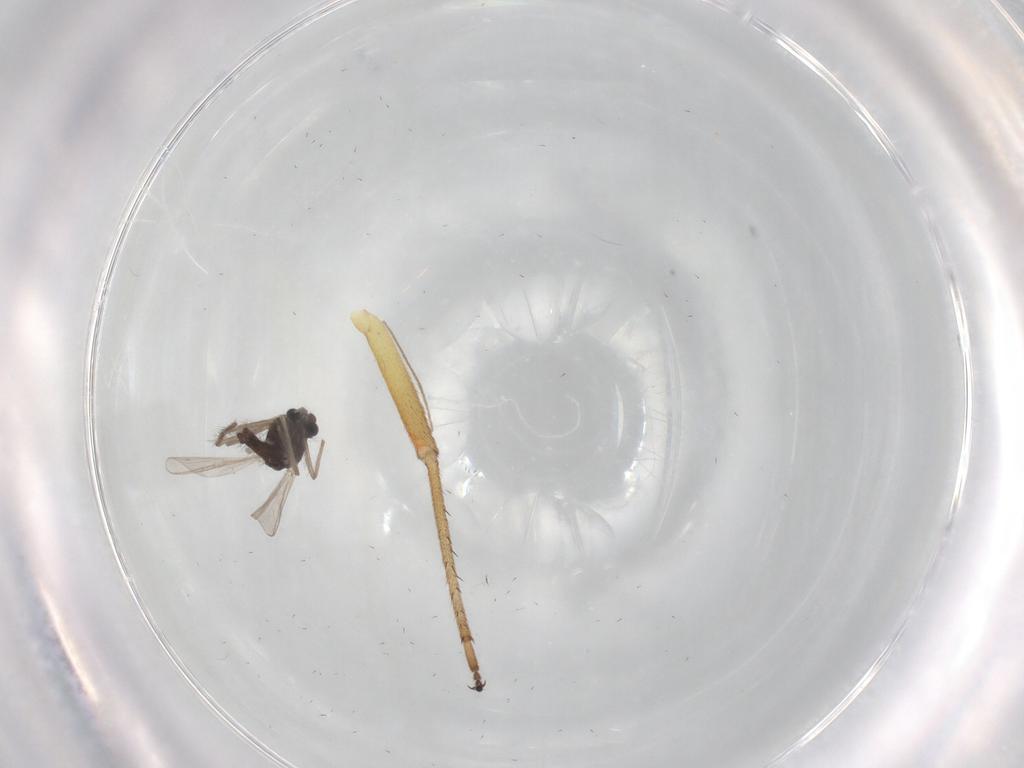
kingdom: Animalia
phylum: Arthropoda
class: Insecta
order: Diptera
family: Chironomidae
